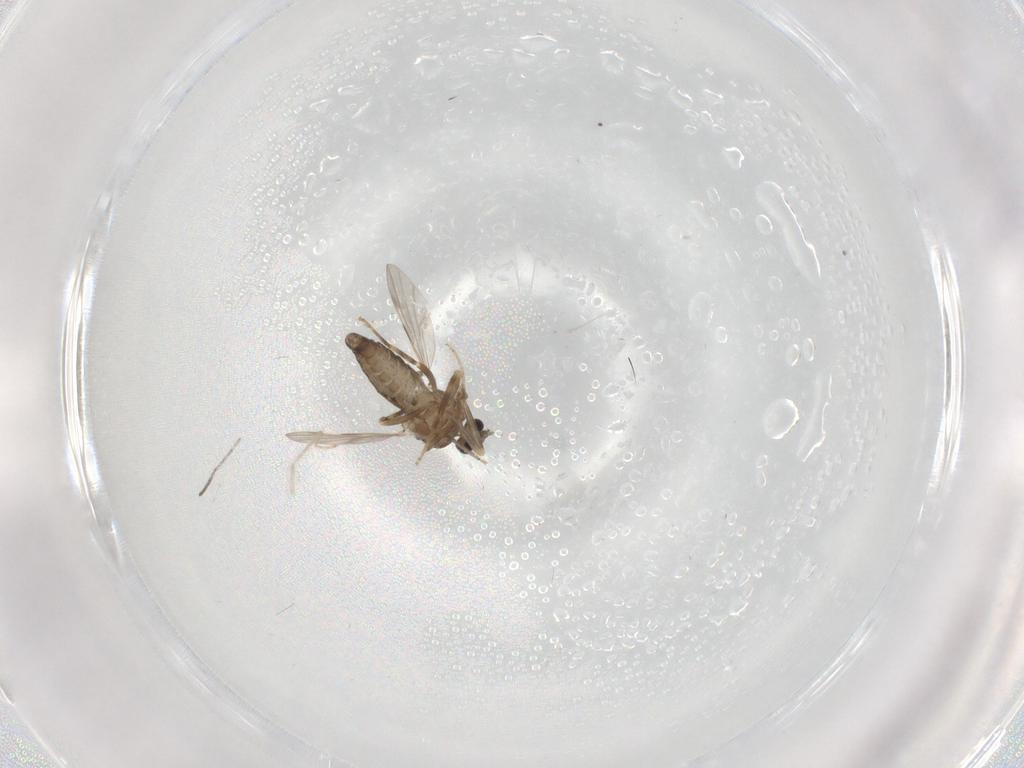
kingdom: Animalia
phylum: Arthropoda
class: Insecta
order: Diptera
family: Ceratopogonidae
